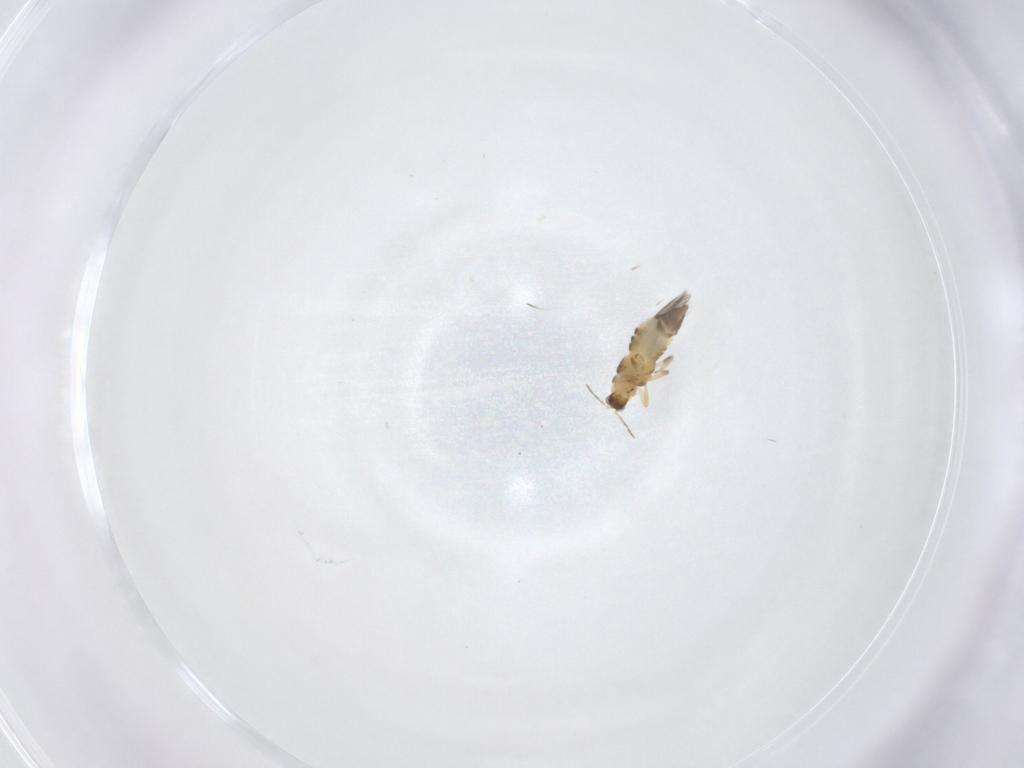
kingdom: Animalia
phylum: Arthropoda
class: Insecta
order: Thysanoptera
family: Thripidae
